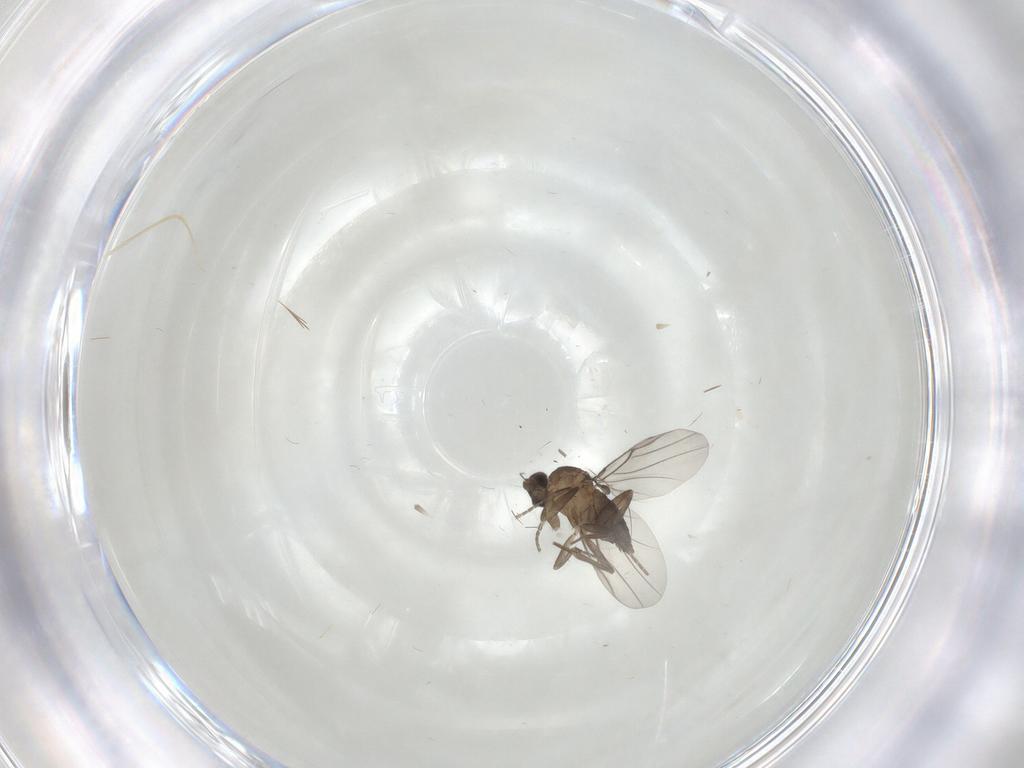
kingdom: Animalia
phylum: Arthropoda
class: Insecta
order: Diptera
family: Phoridae
